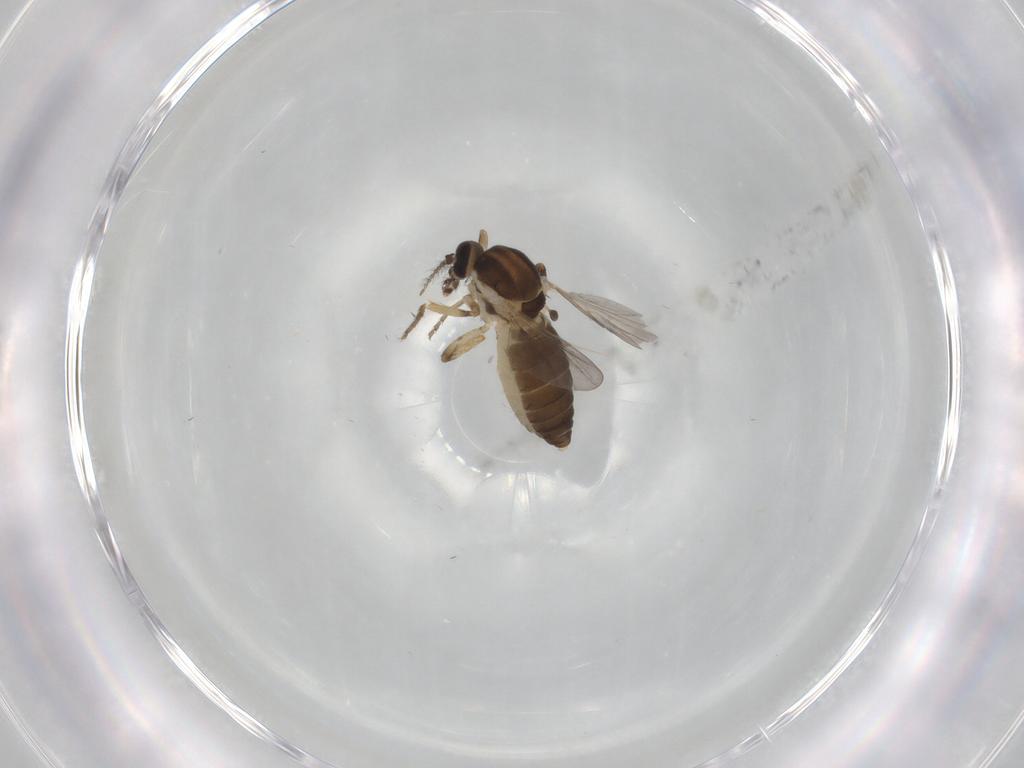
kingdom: Animalia
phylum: Arthropoda
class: Insecta
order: Diptera
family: Ceratopogonidae
